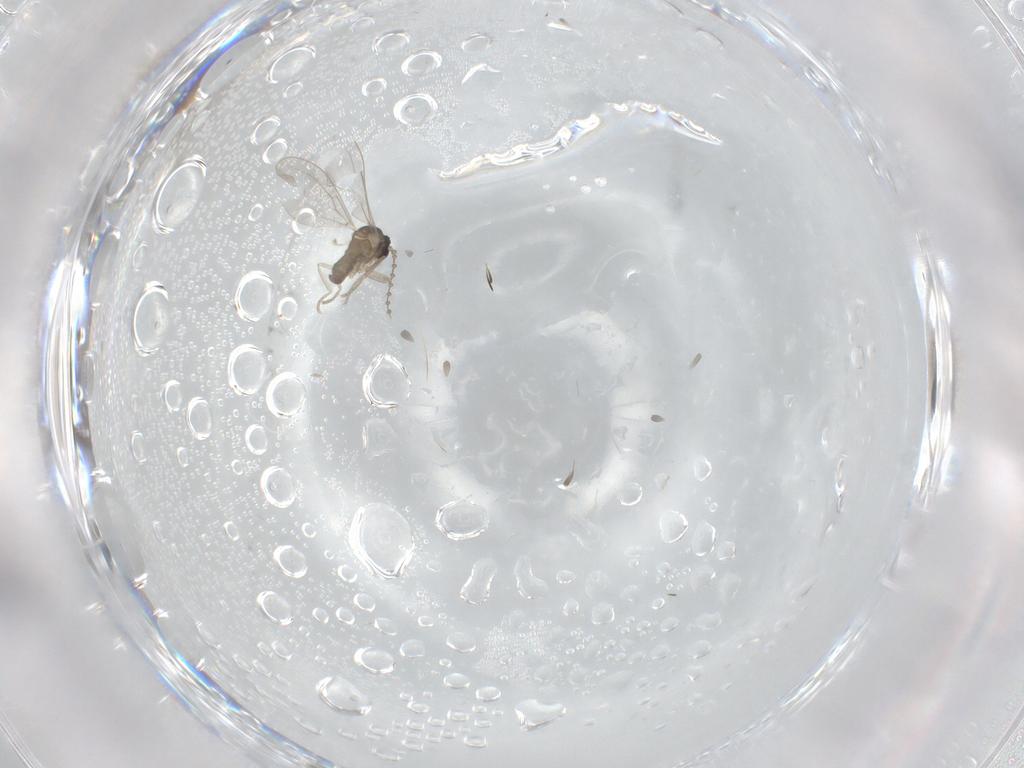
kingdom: Animalia
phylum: Arthropoda
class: Insecta
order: Diptera
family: Cecidomyiidae
